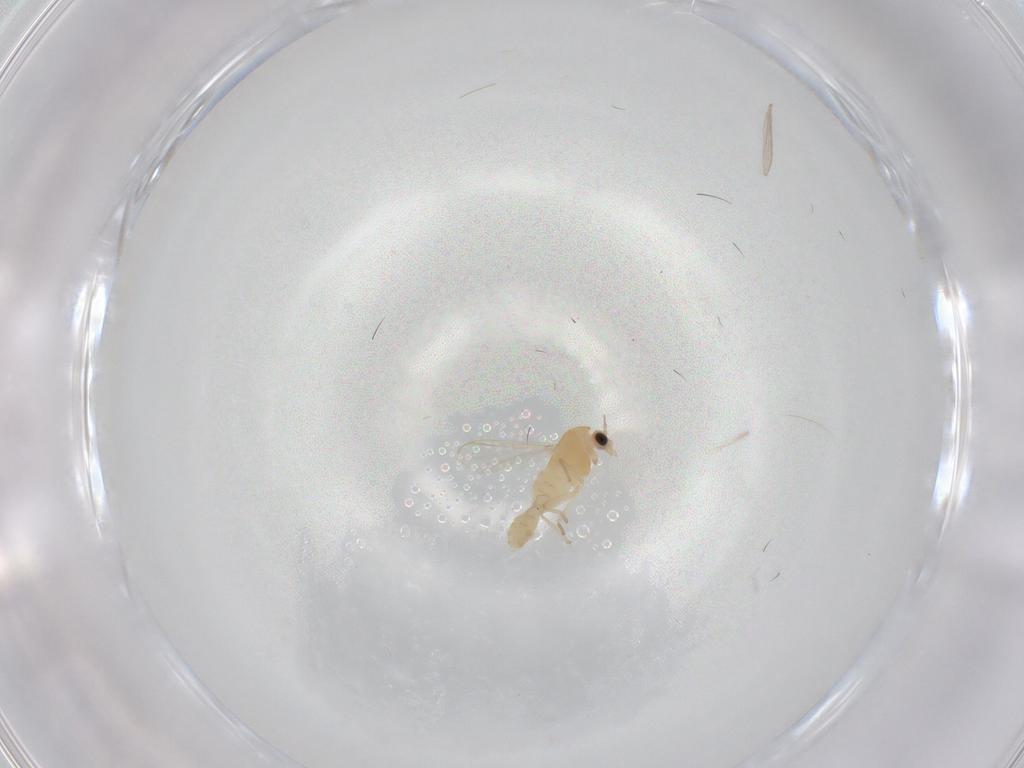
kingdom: Animalia
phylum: Arthropoda
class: Insecta
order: Diptera
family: Chironomidae
